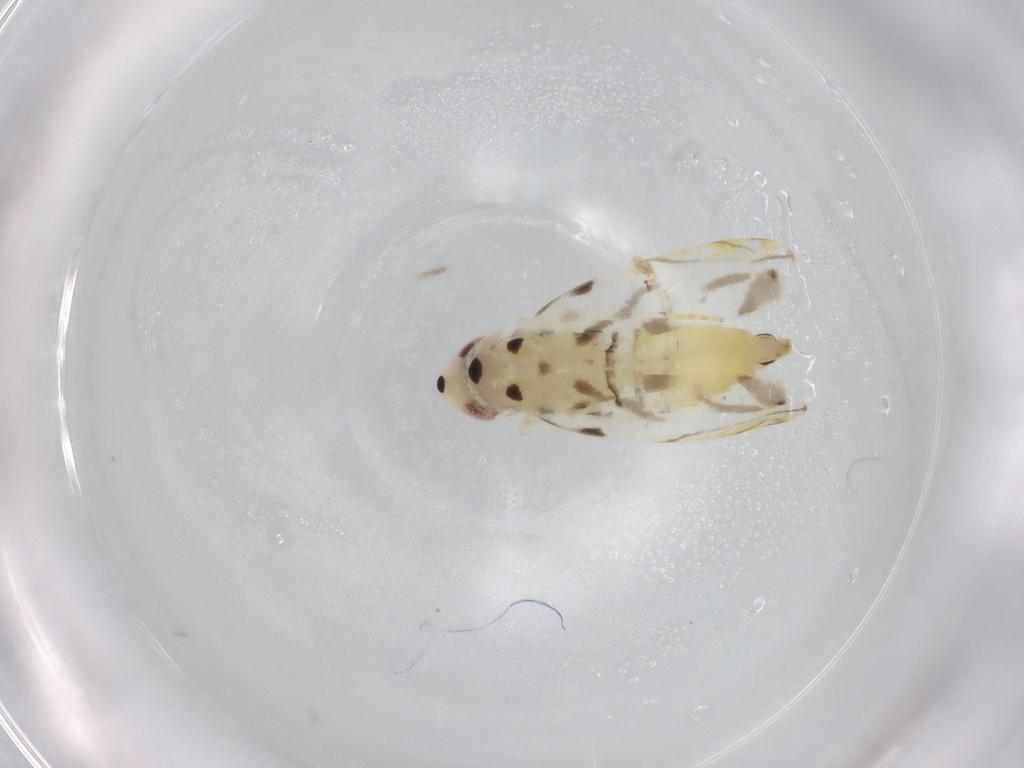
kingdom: Animalia
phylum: Arthropoda
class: Insecta
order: Hemiptera
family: Cicadellidae
